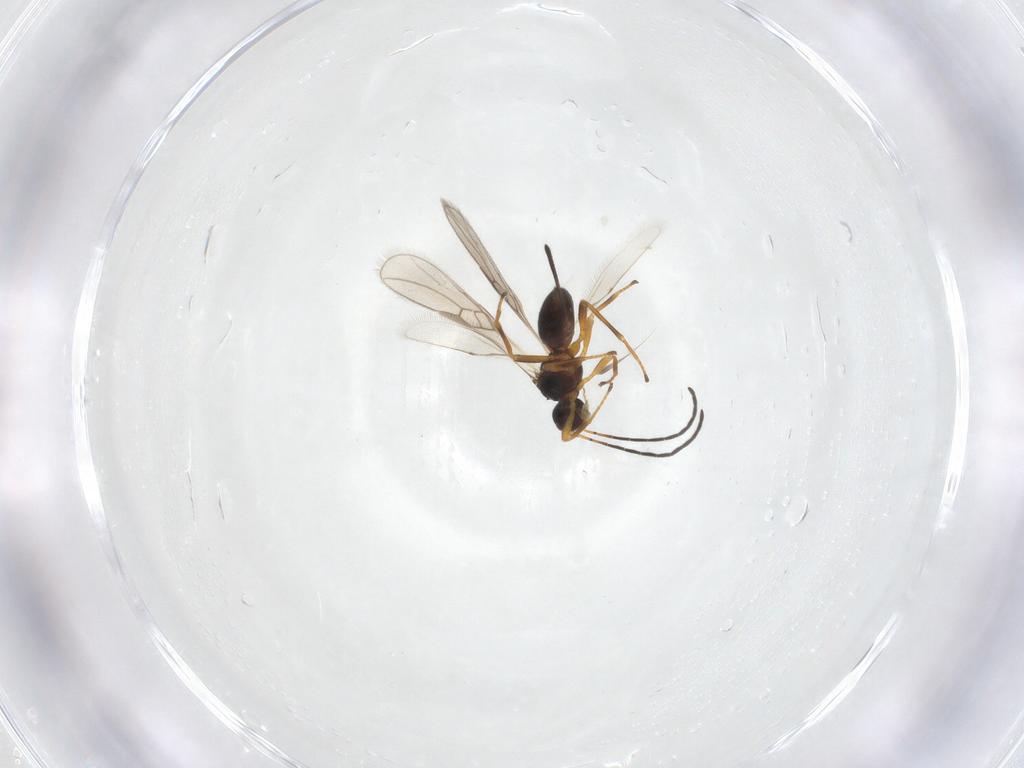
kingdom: Animalia
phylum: Arthropoda
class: Insecta
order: Hymenoptera
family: Braconidae
